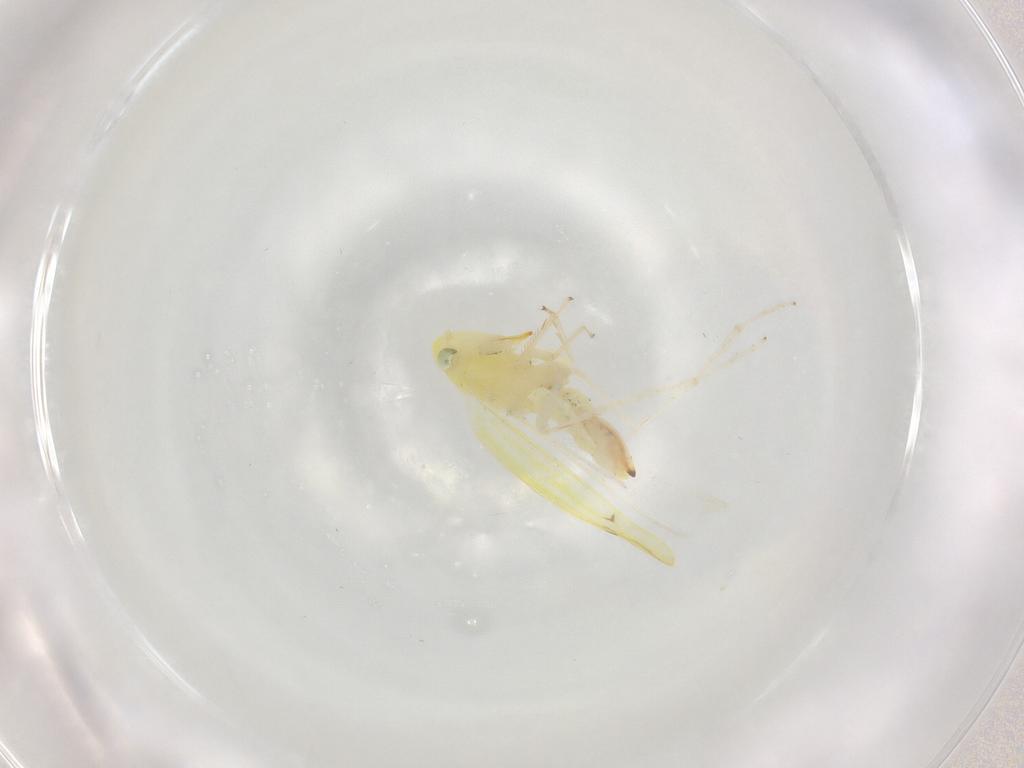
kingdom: Animalia
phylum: Arthropoda
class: Insecta
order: Hemiptera
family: Cicadellidae
